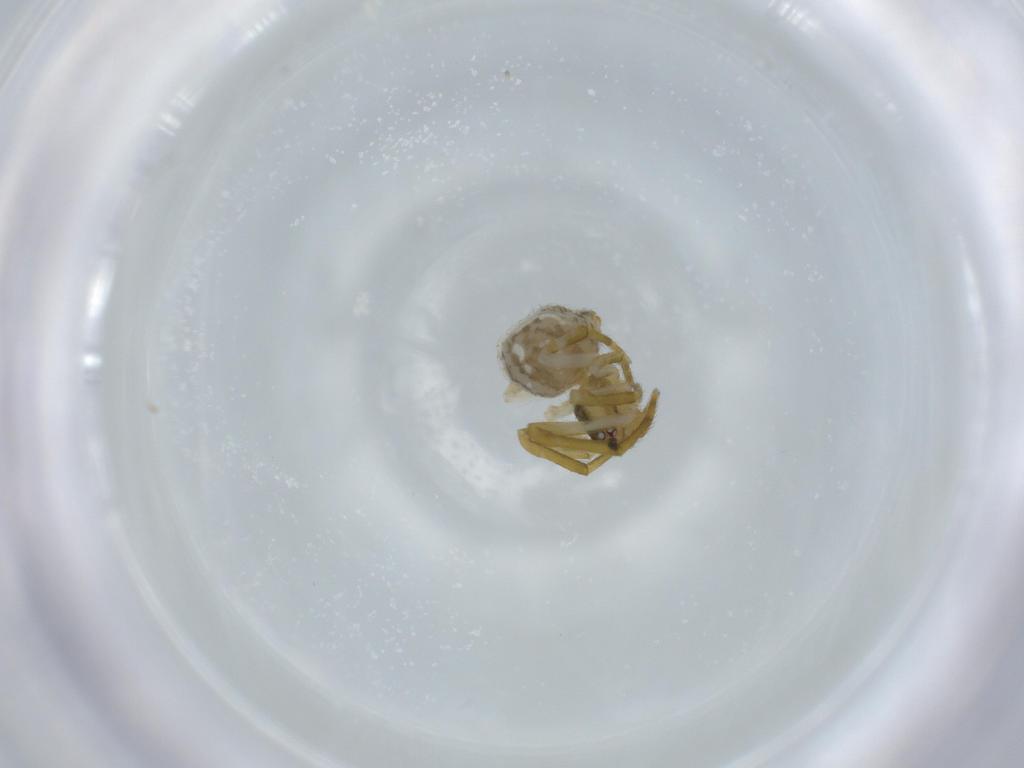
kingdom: Animalia
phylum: Arthropoda
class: Arachnida
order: Araneae
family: Theridiidae
